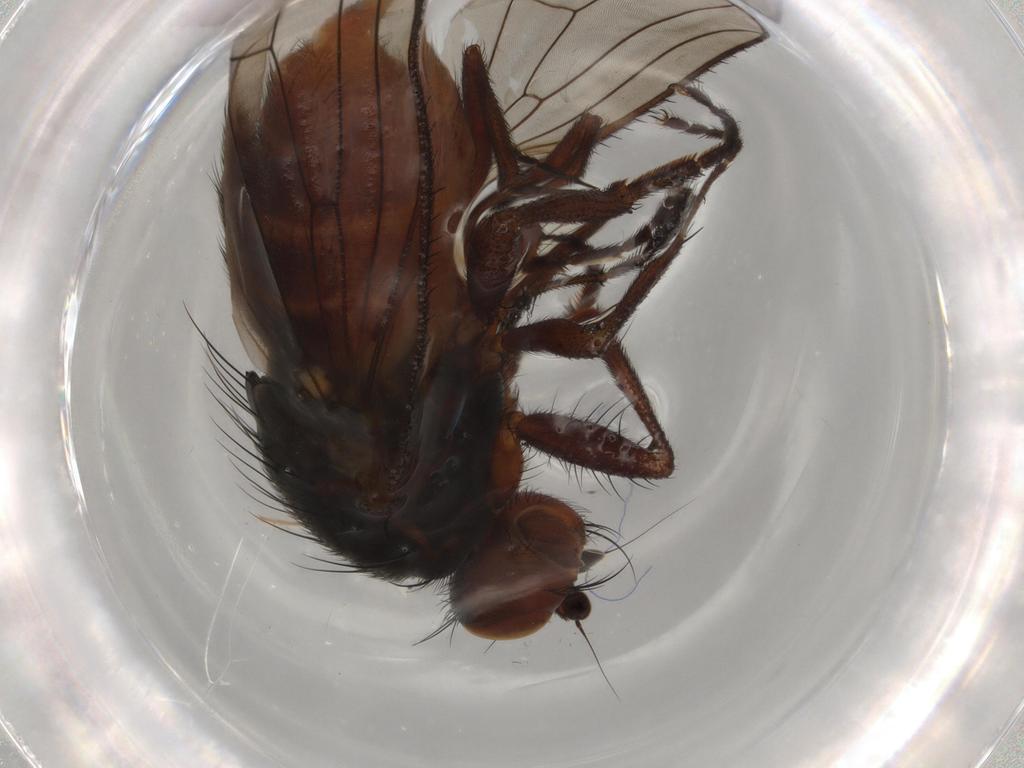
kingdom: Animalia
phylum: Arthropoda
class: Insecta
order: Diptera
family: Heleomyzidae
